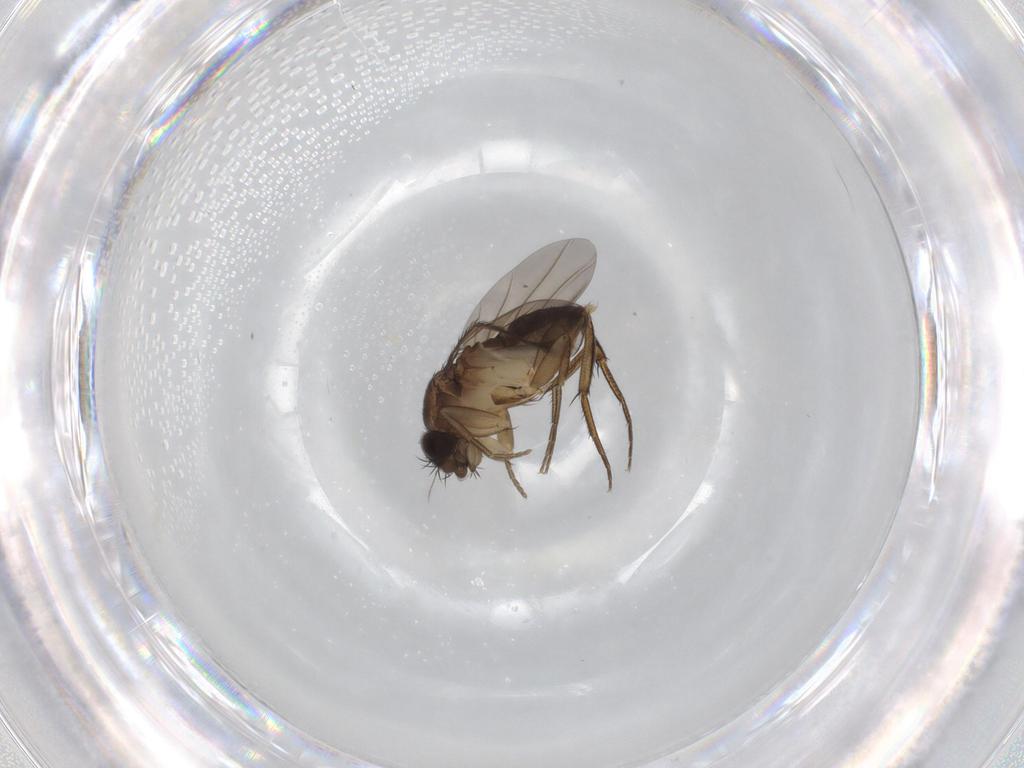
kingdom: Animalia
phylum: Arthropoda
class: Insecta
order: Diptera
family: Phoridae
